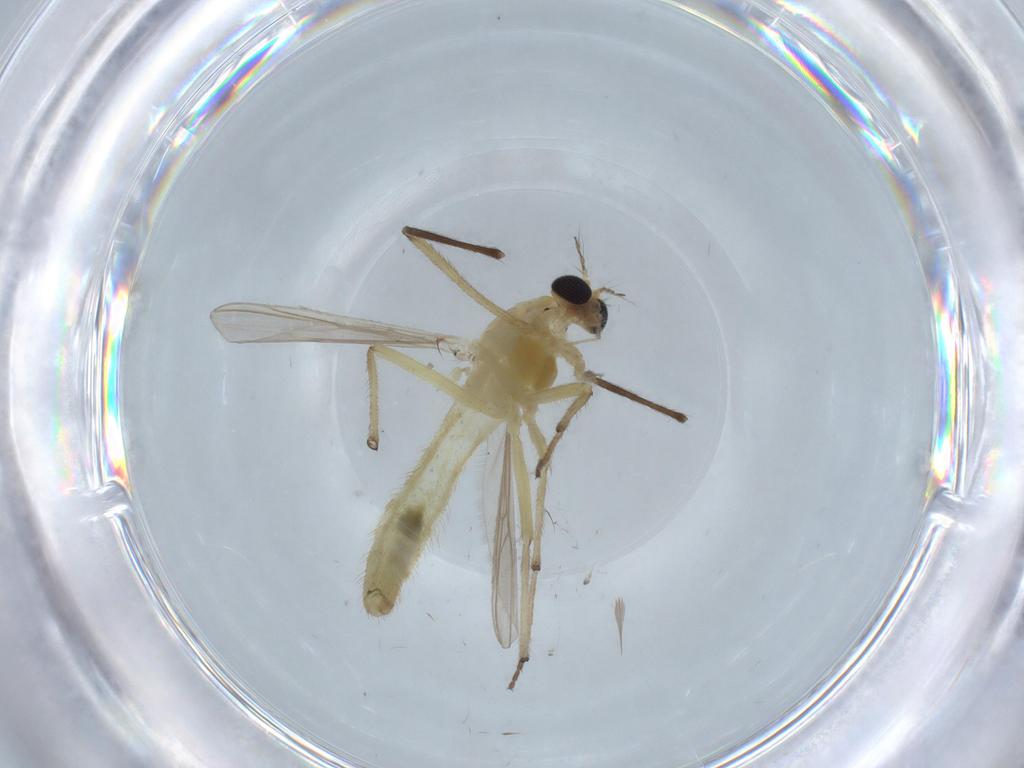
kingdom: Animalia
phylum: Arthropoda
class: Insecta
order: Diptera
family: Chironomidae
